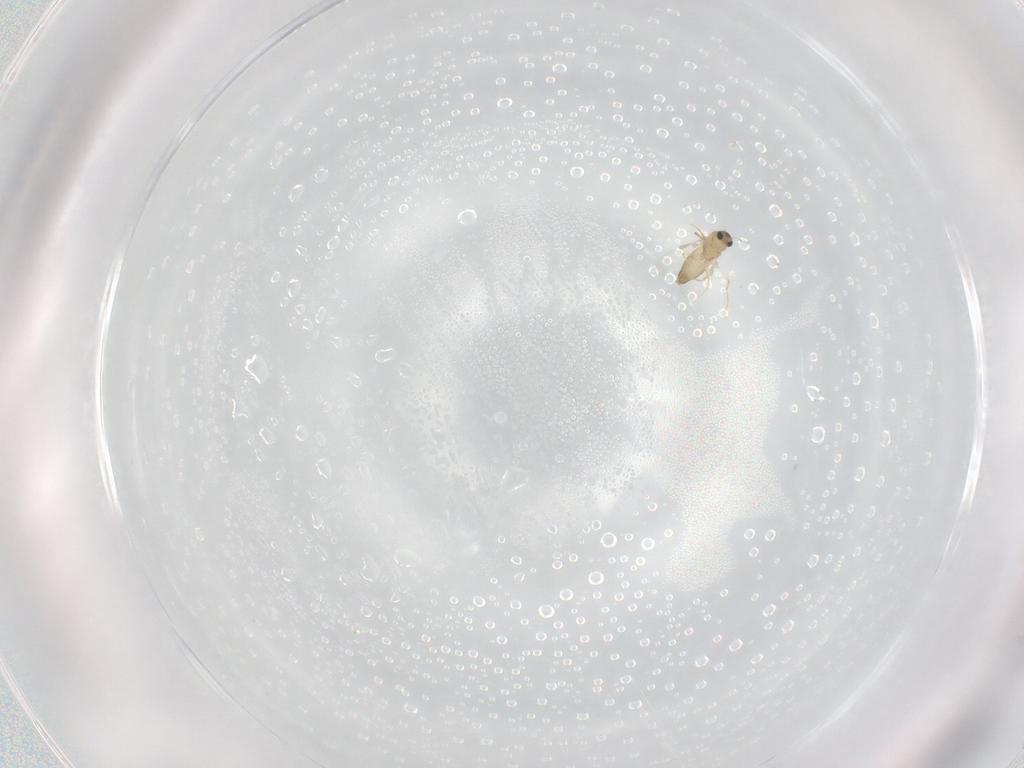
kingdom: Animalia
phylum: Arthropoda
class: Insecta
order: Diptera
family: Chironomidae
